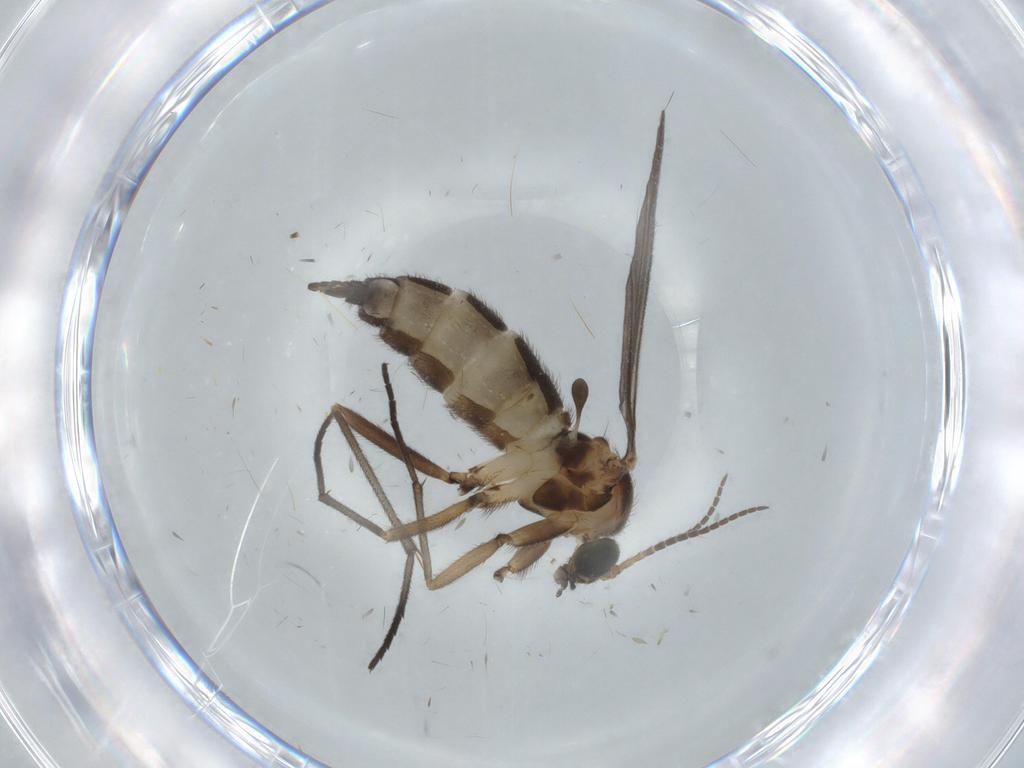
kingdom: Animalia
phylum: Arthropoda
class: Insecta
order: Diptera
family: Sciaridae
